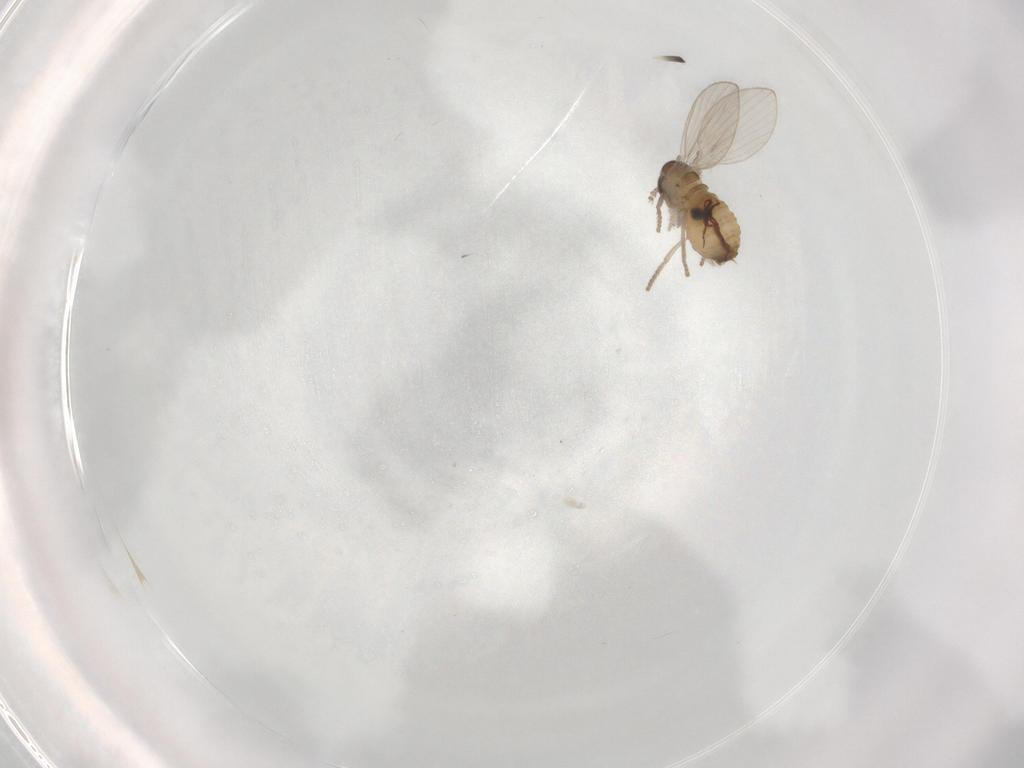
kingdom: Animalia
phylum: Arthropoda
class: Insecta
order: Diptera
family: Psychodidae
